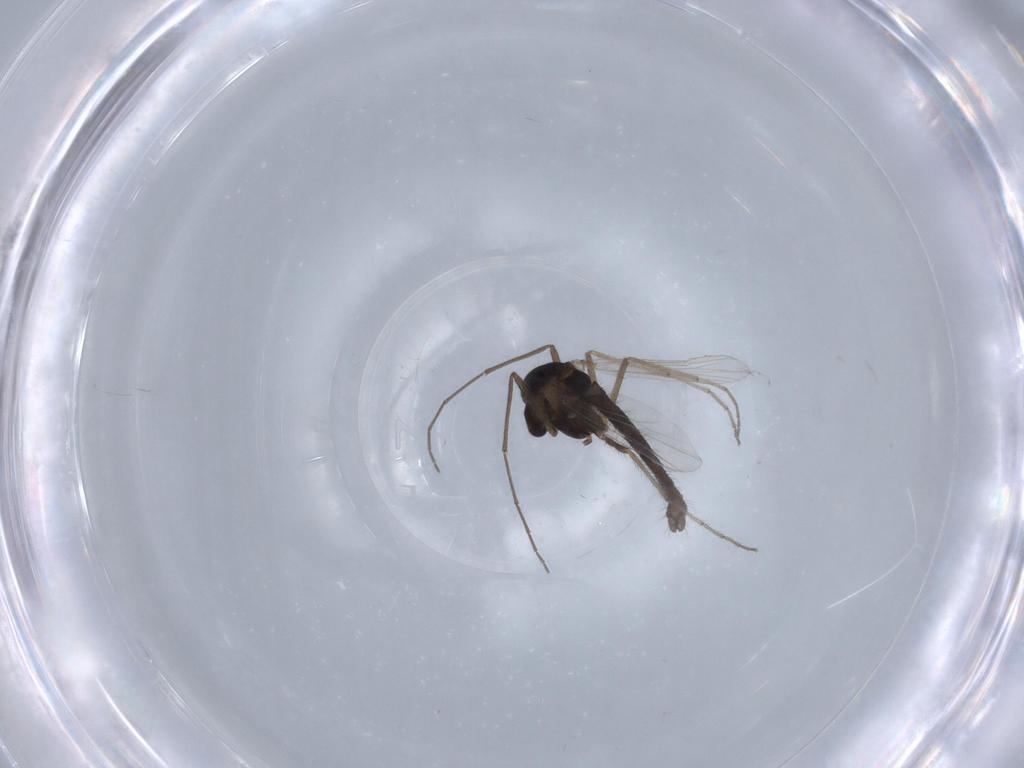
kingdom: Animalia
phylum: Arthropoda
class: Insecta
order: Diptera
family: Chironomidae
